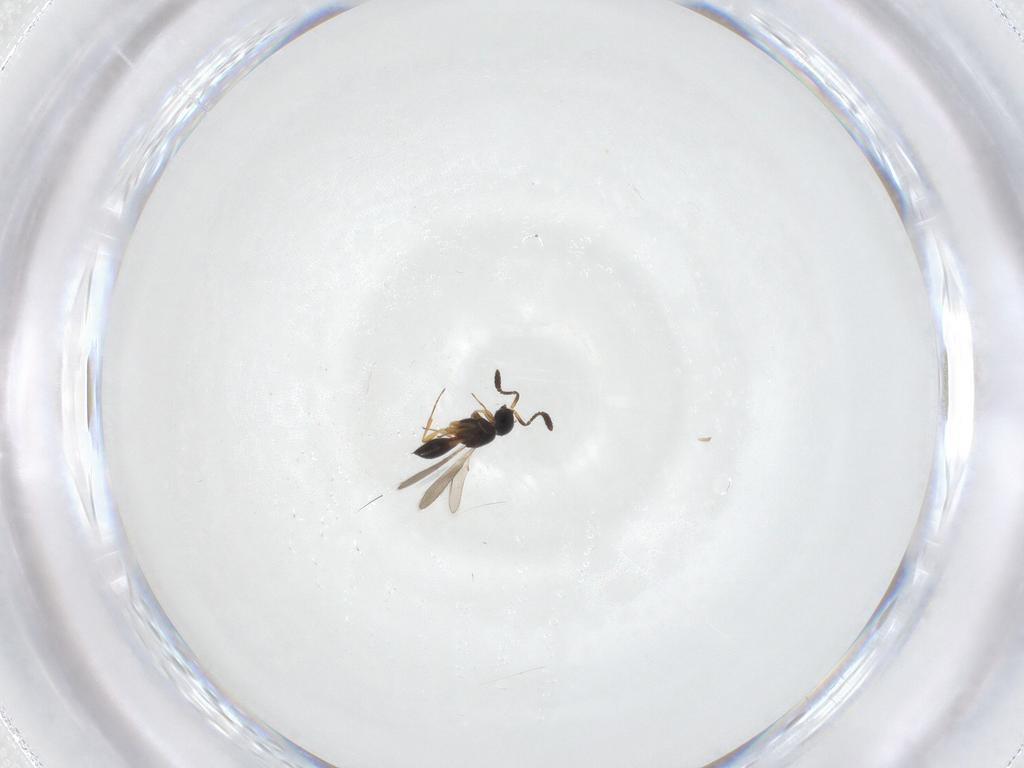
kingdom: Animalia
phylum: Arthropoda
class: Insecta
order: Hymenoptera
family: Scelionidae
